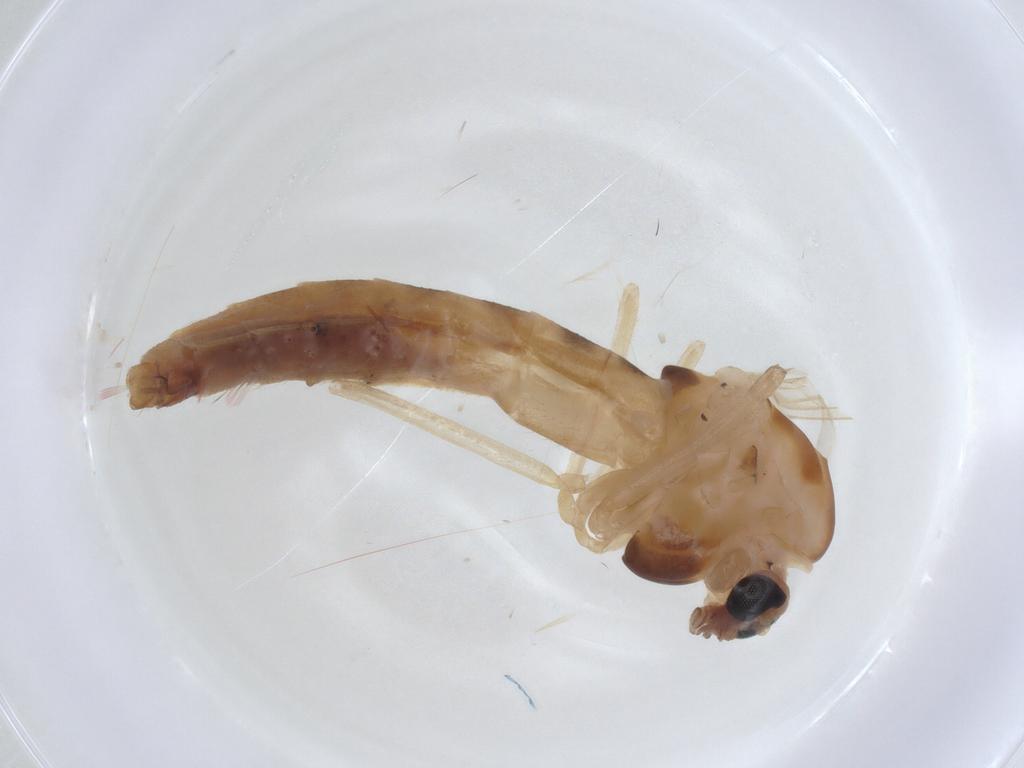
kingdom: Animalia
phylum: Arthropoda
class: Insecta
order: Diptera
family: Chironomidae
